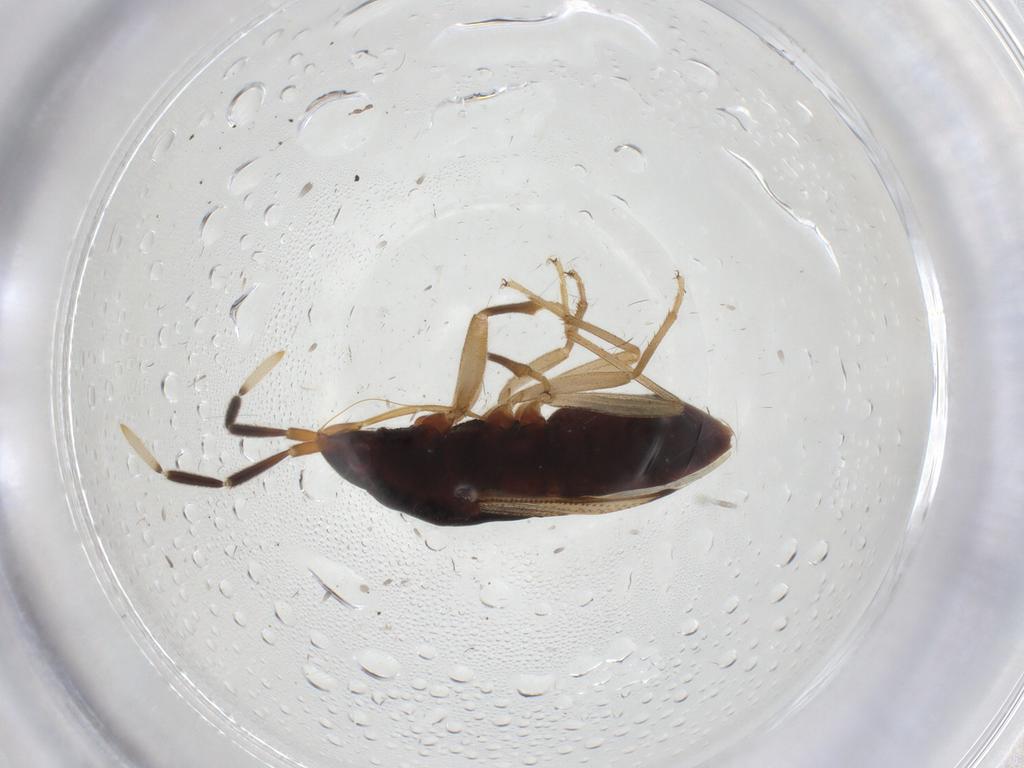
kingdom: Animalia
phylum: Arthropoda
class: Insecta
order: Hemiptera
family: Rhyparochromidae
